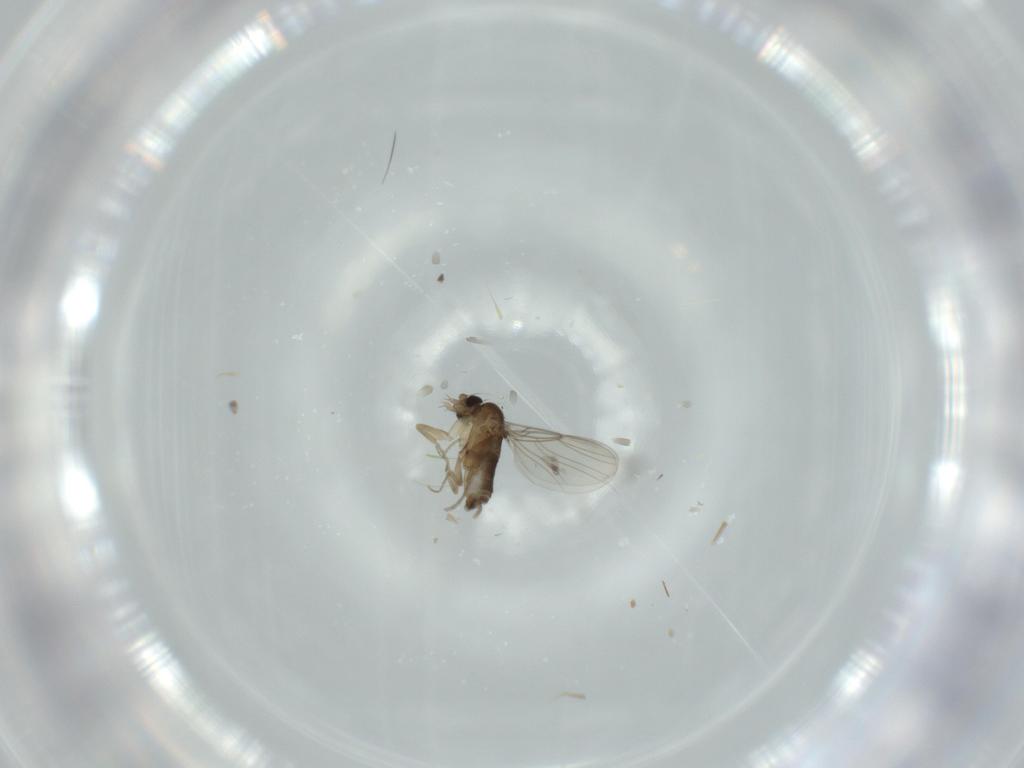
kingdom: Animalia
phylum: Arthropoda
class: Insecta
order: Diptera
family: Phoridae
